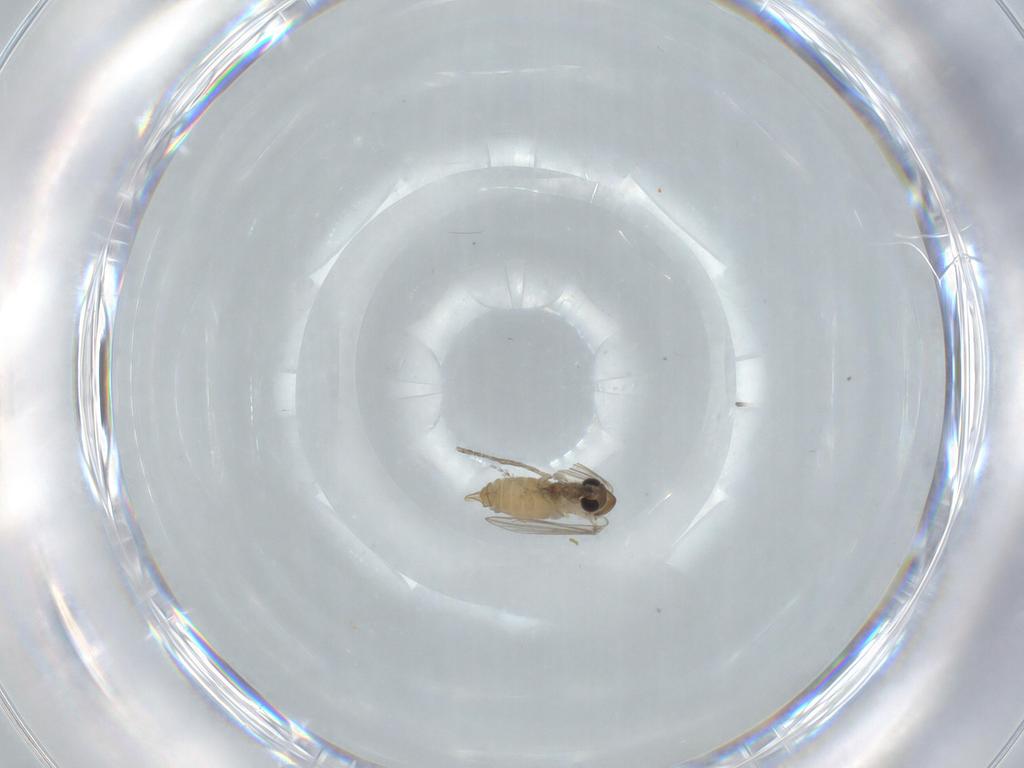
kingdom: Animalia
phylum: Arthropoda
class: Insecta
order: Diptera
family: Psychodidae
